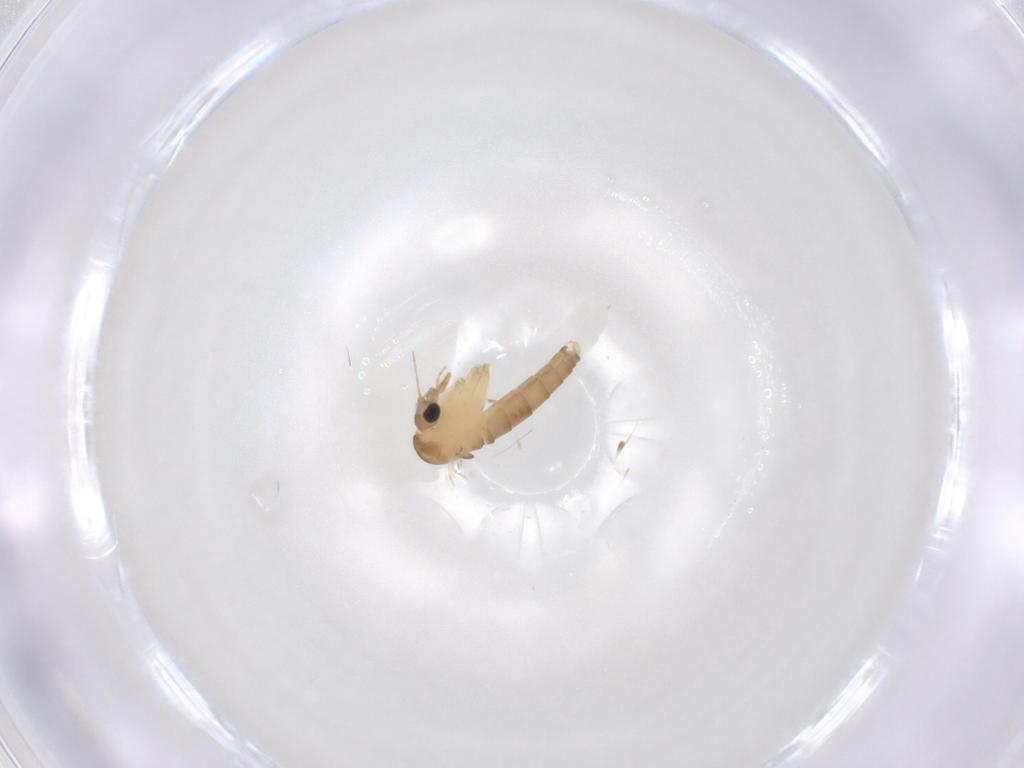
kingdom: Animalia
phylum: Arthropoda
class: Insecta
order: Diptera
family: Psychodidae
